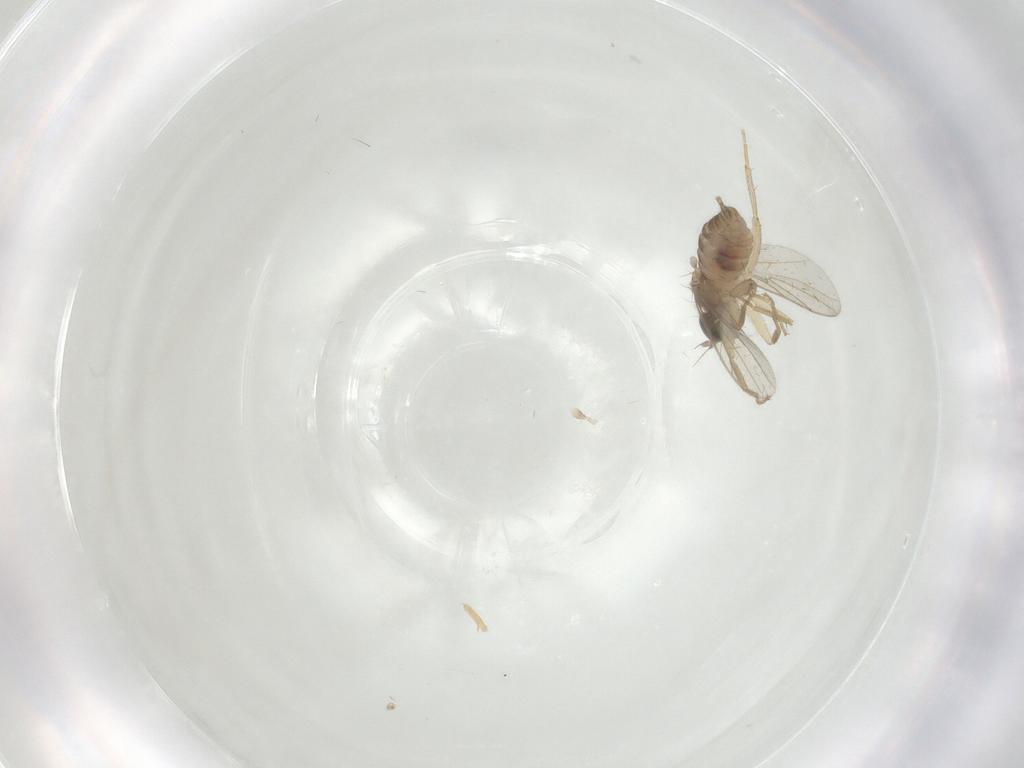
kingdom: Animalia
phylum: Arthropoda
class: Insecta
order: Diptera
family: Hybotidae
